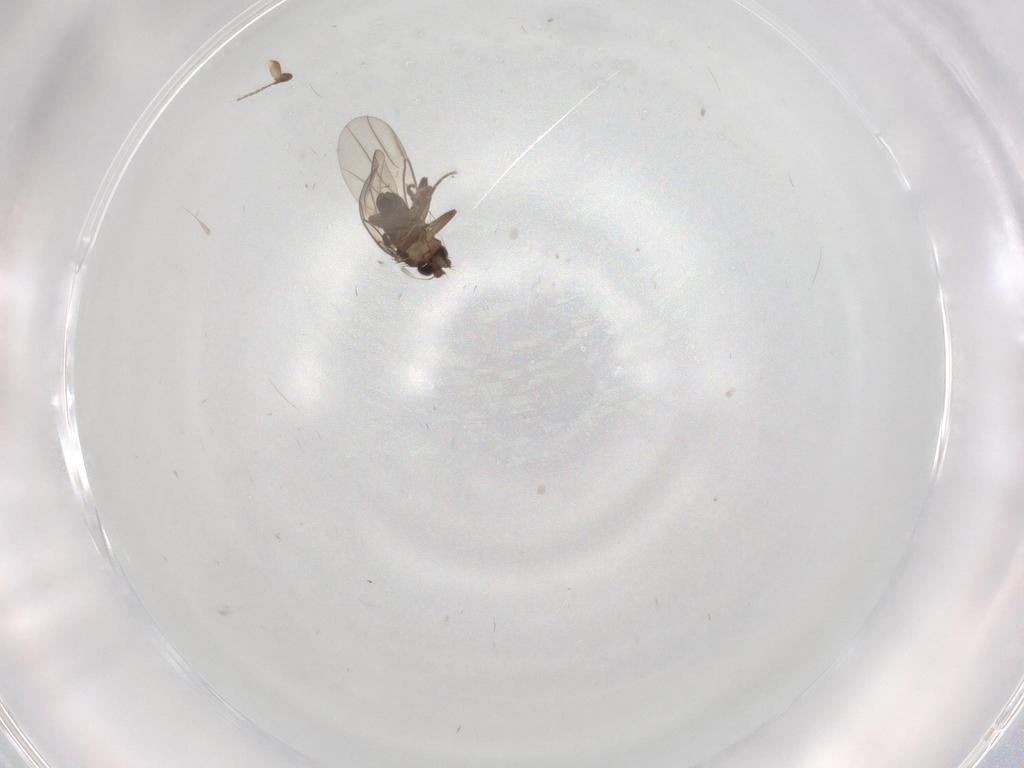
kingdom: Animalia
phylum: Arthropoda
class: Insecta
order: Diptera
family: Phoridae
